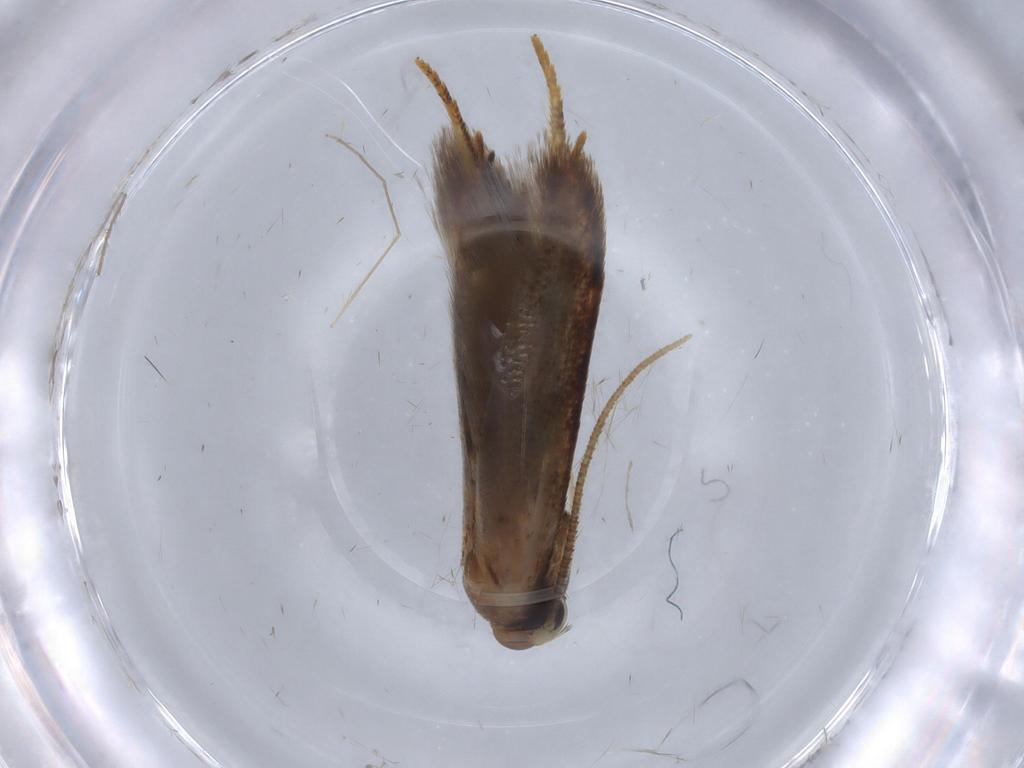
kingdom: Animalia
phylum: Arthropoda
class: Insecta
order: Lepidoptera
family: Blastobasidae
